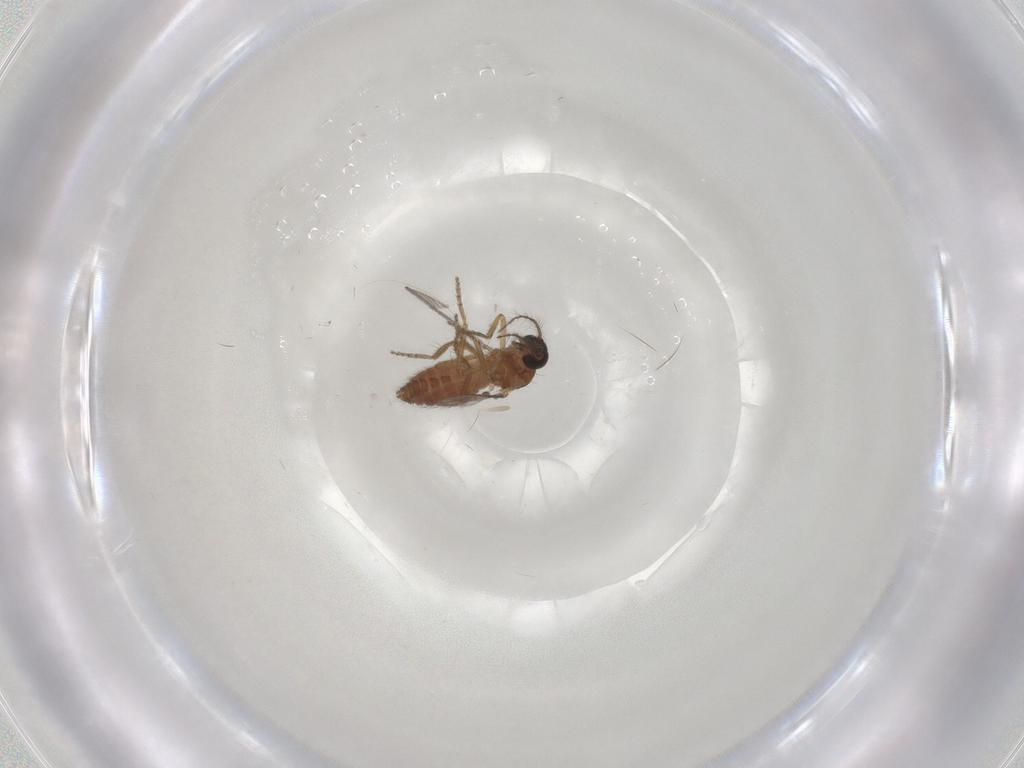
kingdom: Animalia
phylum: Arthropoda
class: Insecta
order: Diptera
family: Ceratopogonidae
